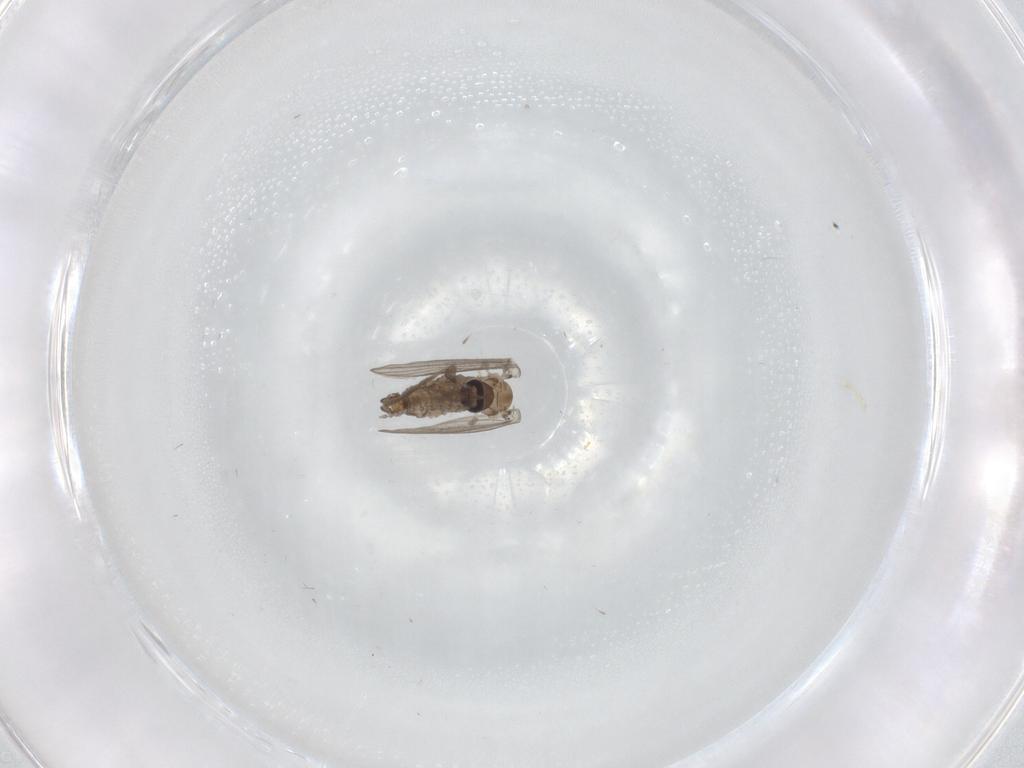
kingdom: Animalia
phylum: Arthropoda
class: Insecta
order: Diptera
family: Psychodidae
